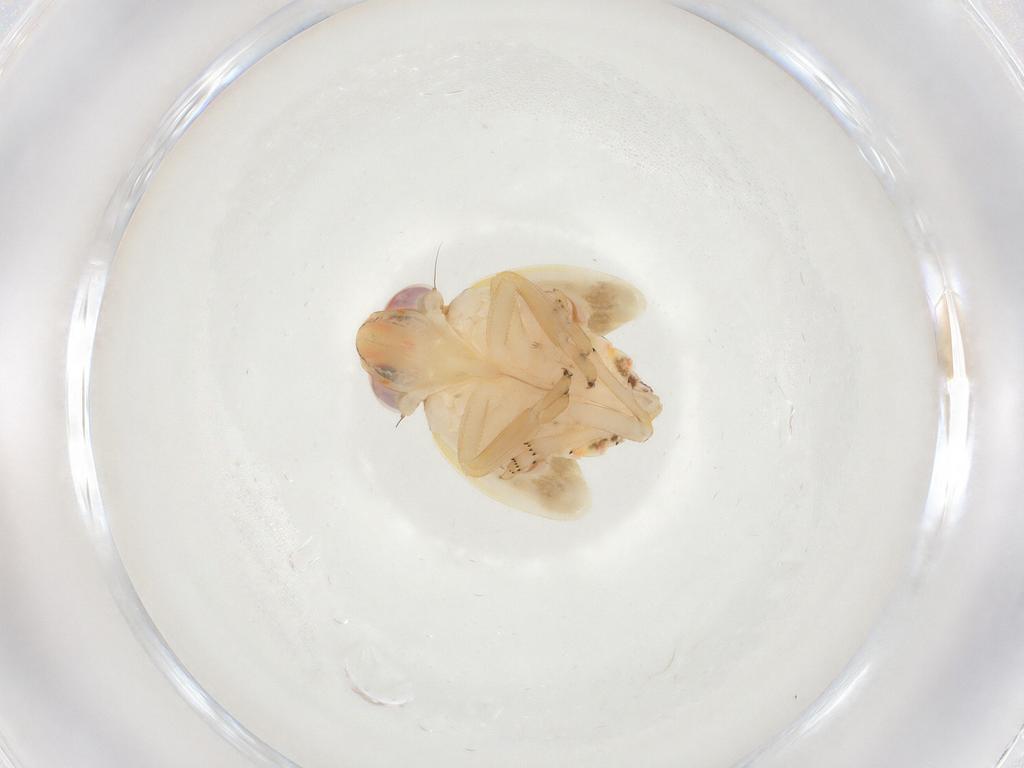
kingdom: Animalia
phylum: Arthropoda
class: Insecta
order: Hemiptera
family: Nogodinidae
